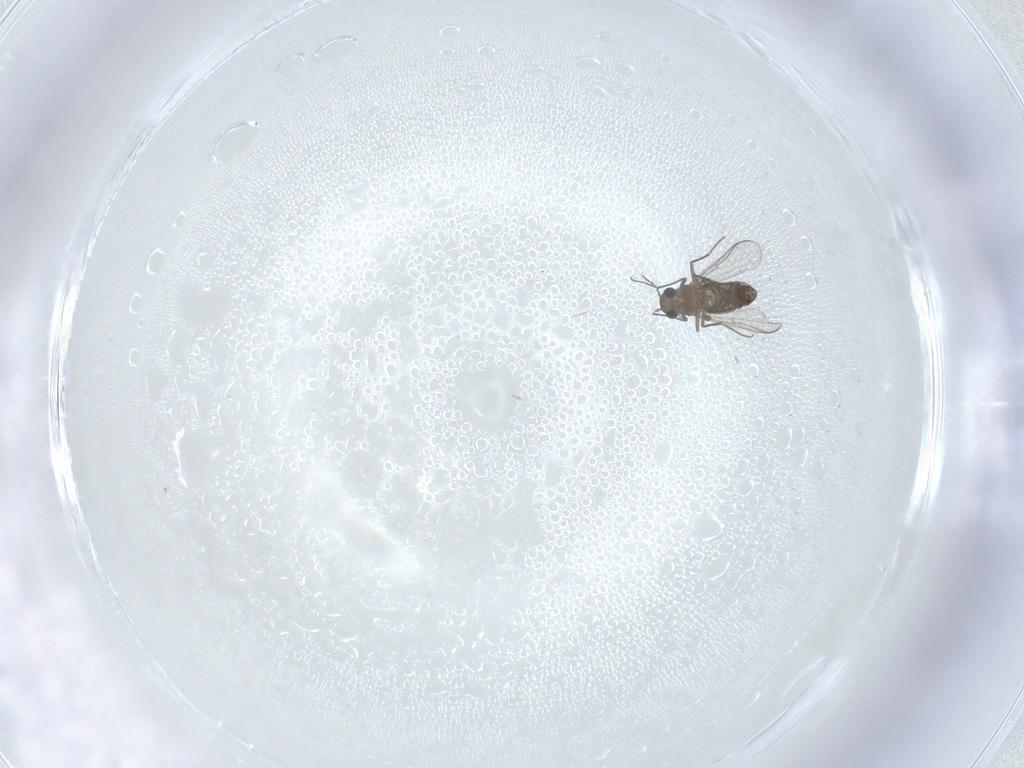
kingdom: Animalia
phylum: Arthropoda
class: Insecta
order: Diptera
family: Chironomidae
